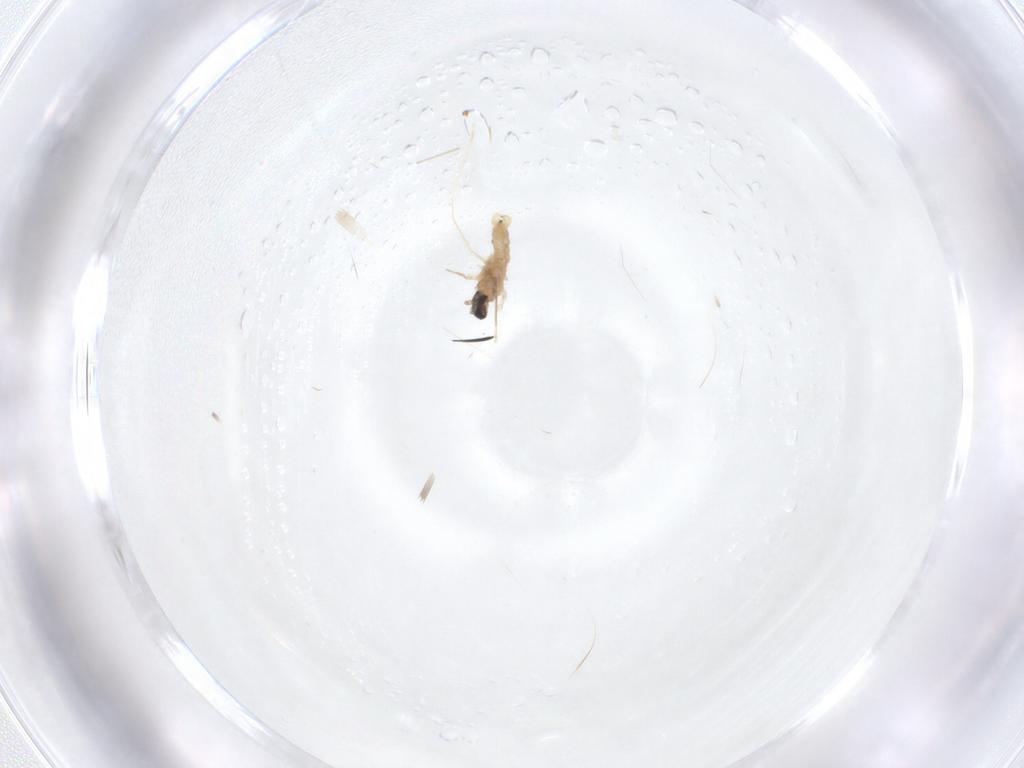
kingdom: Animalia
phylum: Arthropoda
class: Insecta
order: Diptera
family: Cecidomyiidae
